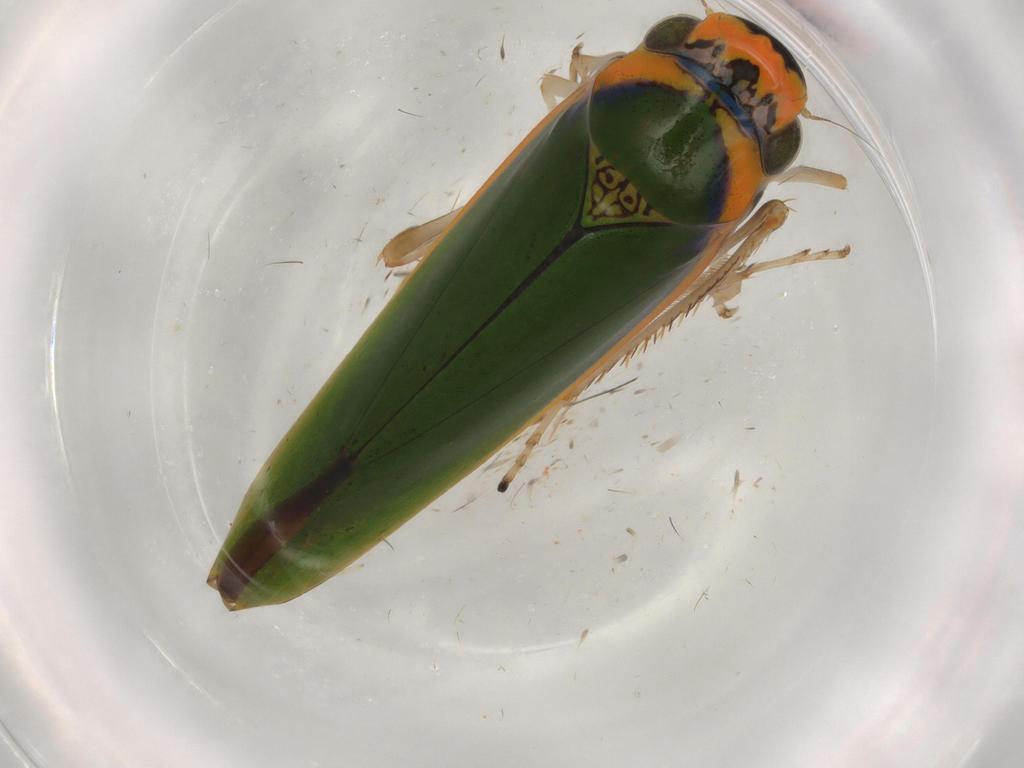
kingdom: Animalia
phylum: Arthropoda
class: Insecta
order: Hemiptera
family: Cicadellidae
